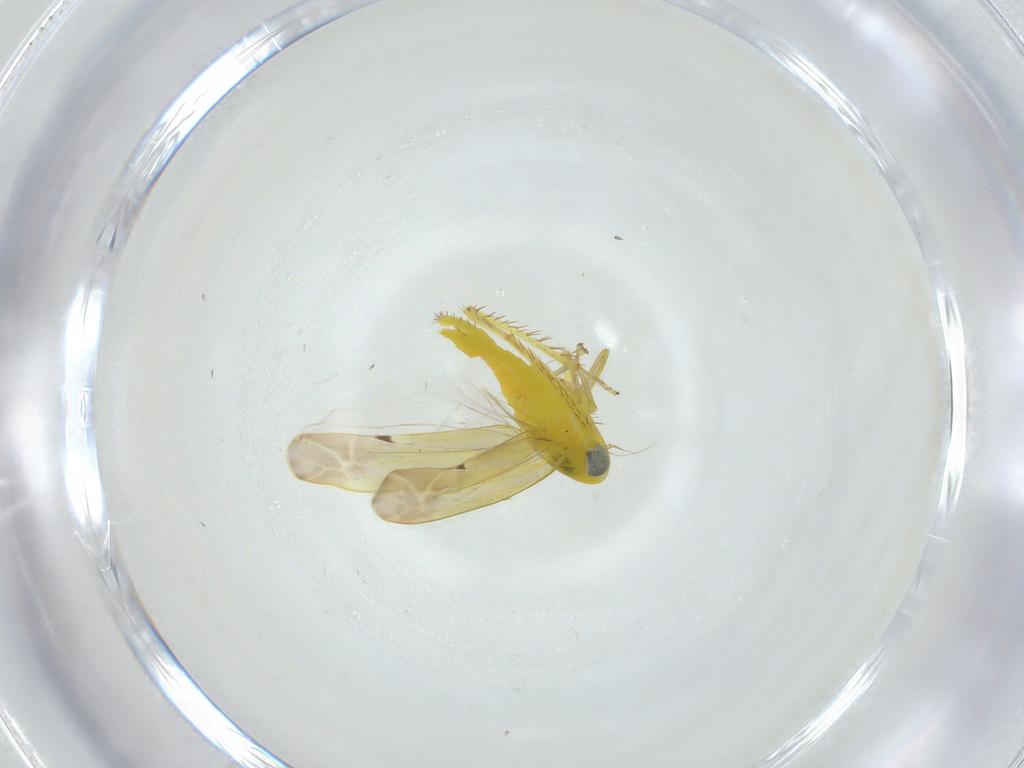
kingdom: Animalia
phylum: Arthropoda
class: Insecta
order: Hemiptera
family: Cicadellidae
